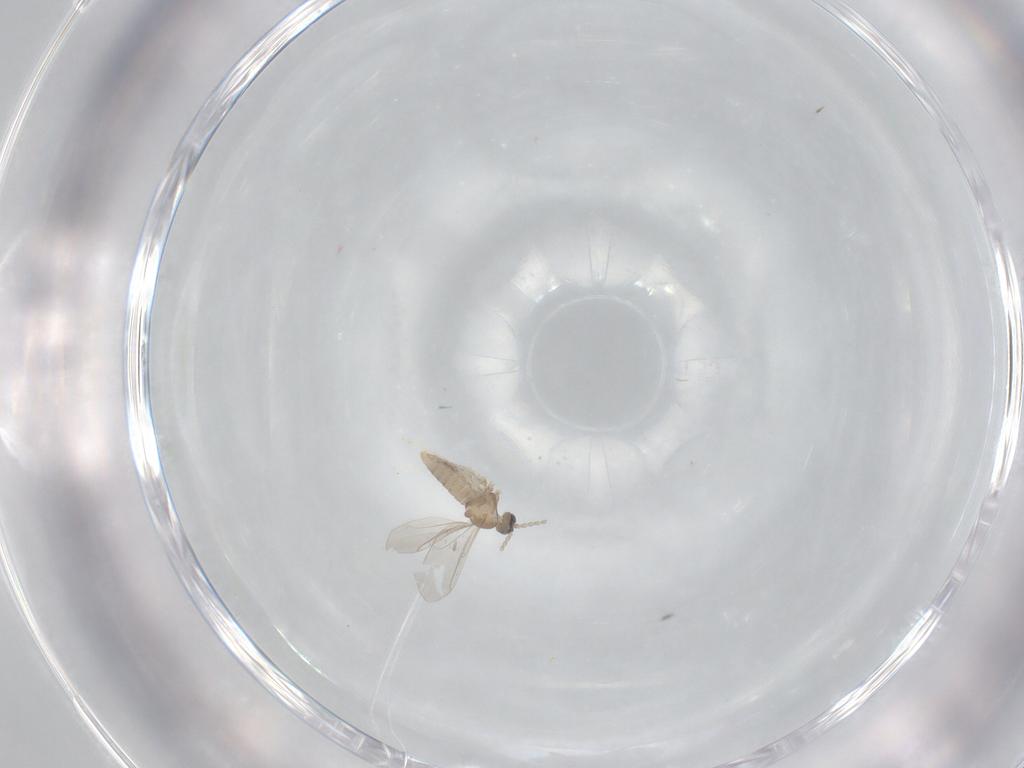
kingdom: Animalia
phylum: Arthropoda
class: Insecta
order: Diptera
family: Cecidomyiidae
